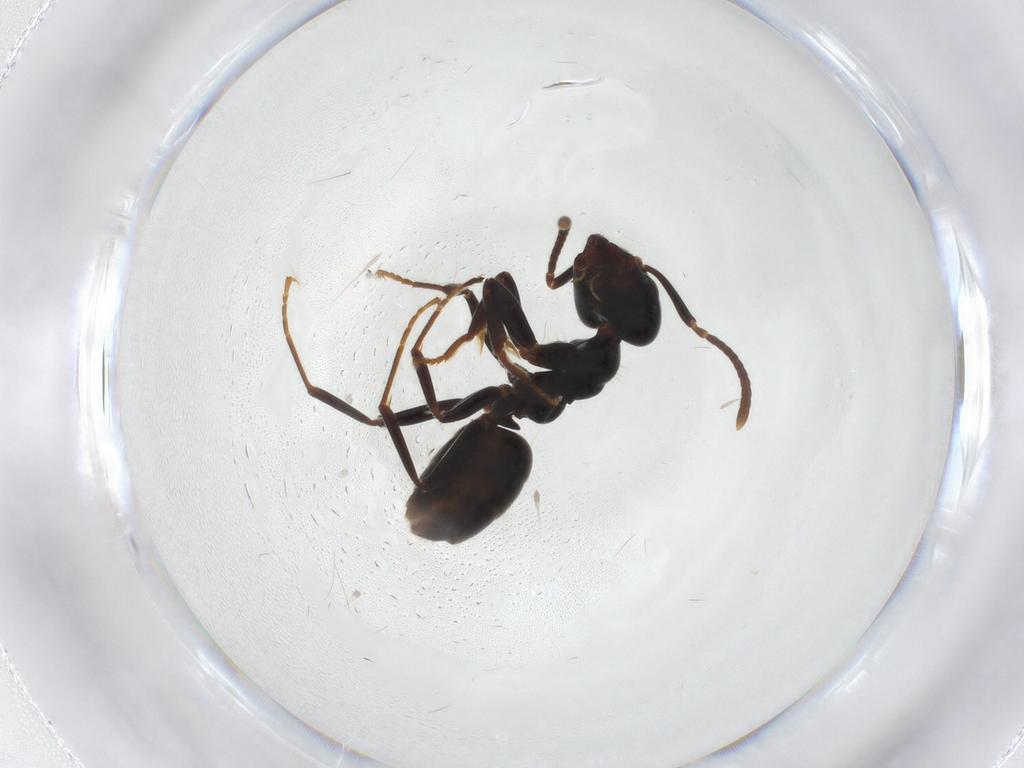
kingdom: Animalia
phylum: Arthropoda
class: Insecta
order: Hymenoptera
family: Formicidae
